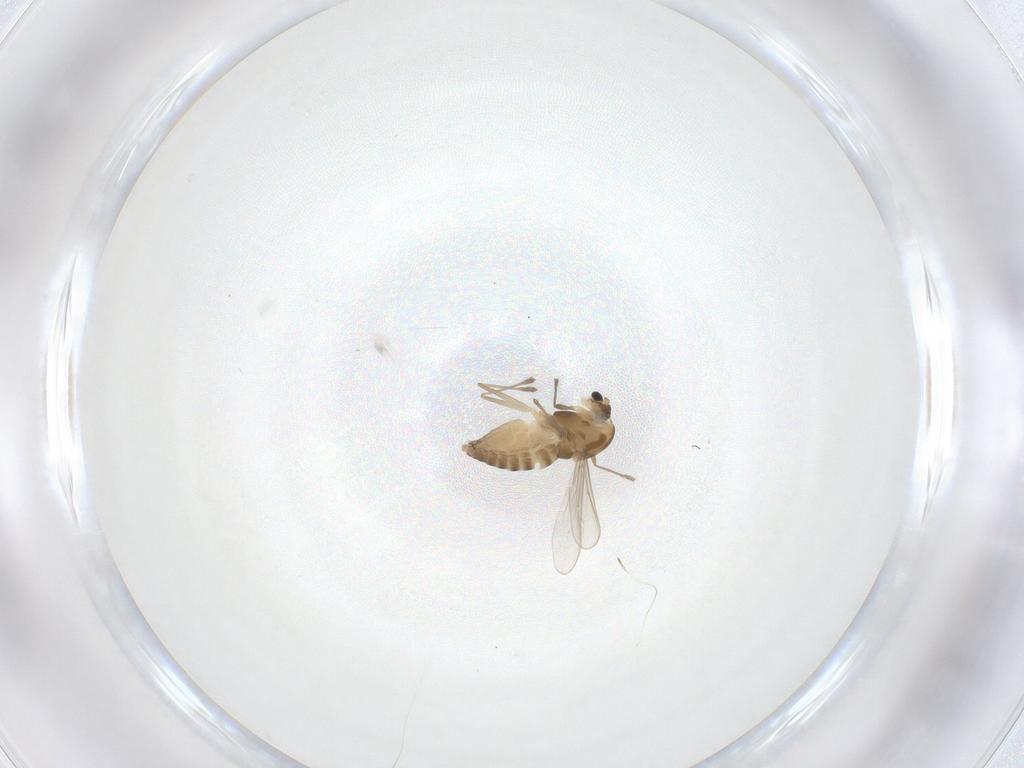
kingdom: Animalia
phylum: Arthropoda
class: Insecta
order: Diptera
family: Chironomidae
